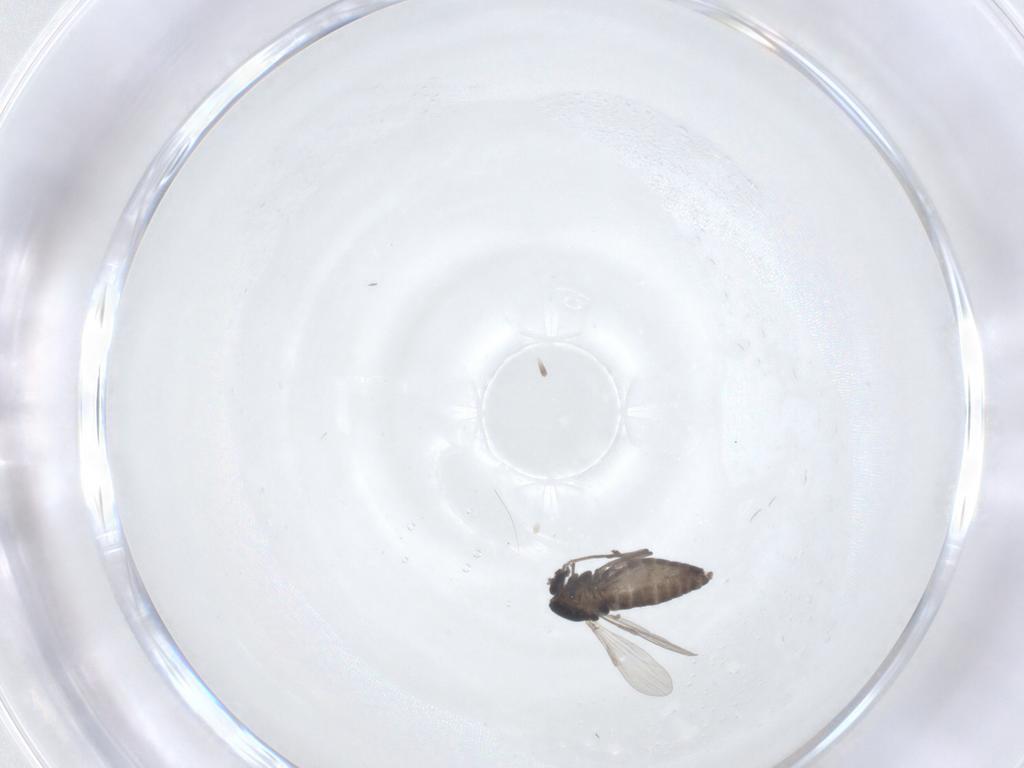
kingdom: Animalia
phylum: Arthropoda
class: Insecta
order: Diptera
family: Chironomidae
